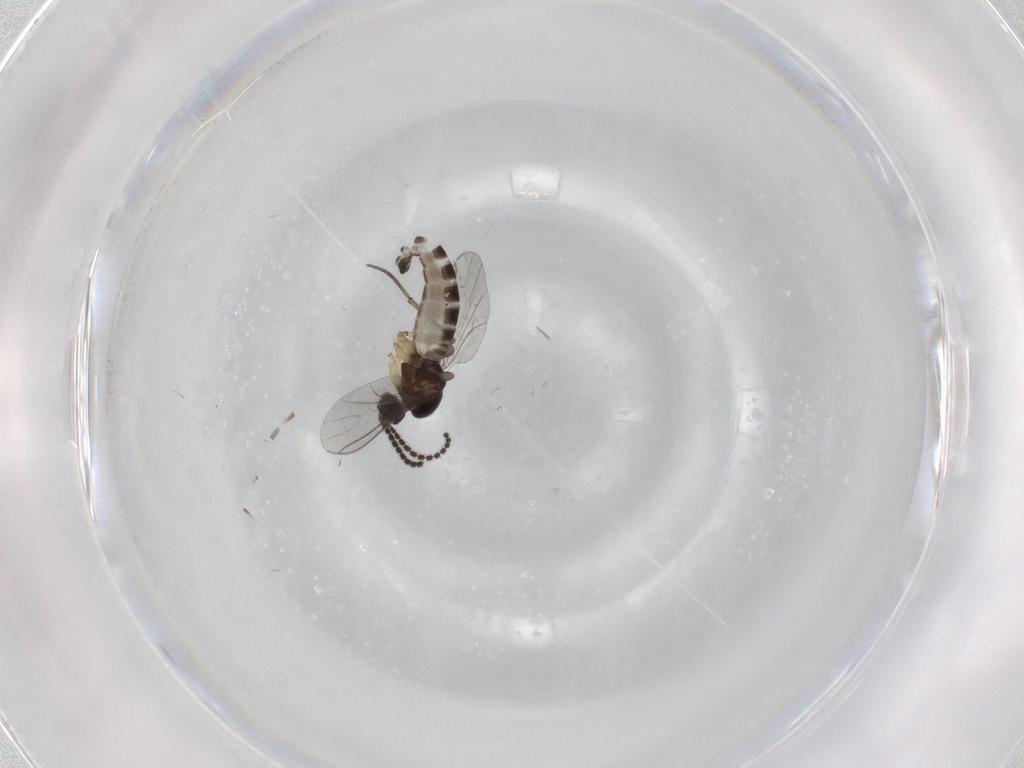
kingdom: Animalia
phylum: Arthropoda
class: Insecta
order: Diptera
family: Sciaridae
